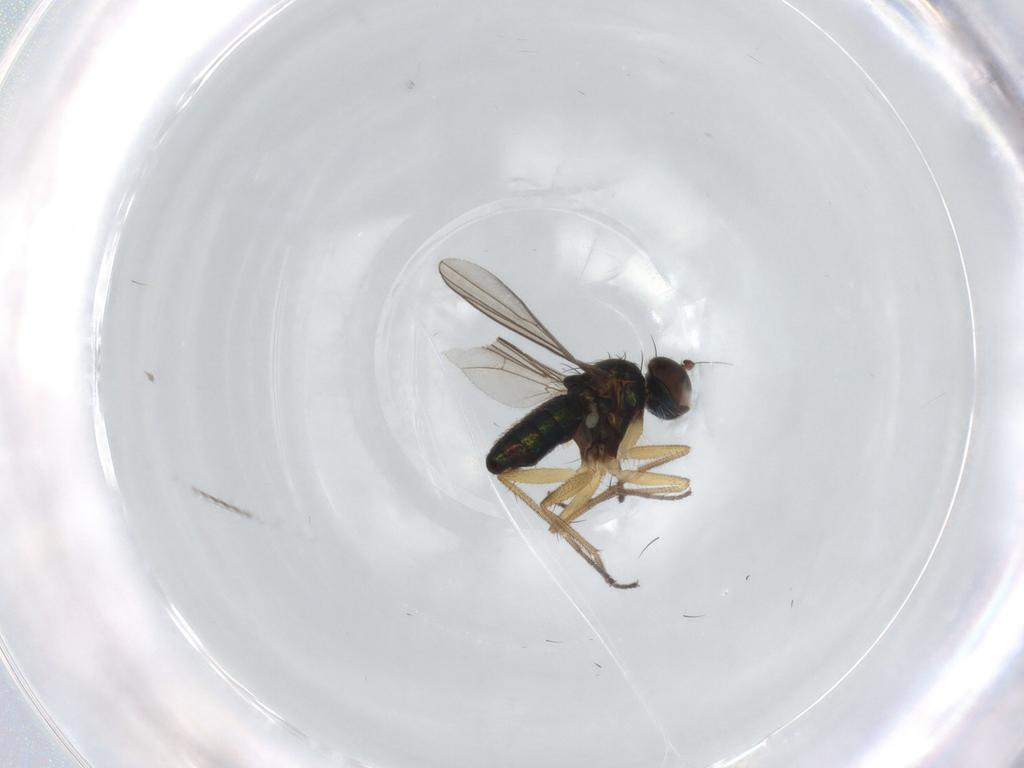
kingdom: Animalia
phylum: Arthropoda
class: Insecta
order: Diptera
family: Dolichopodidae
